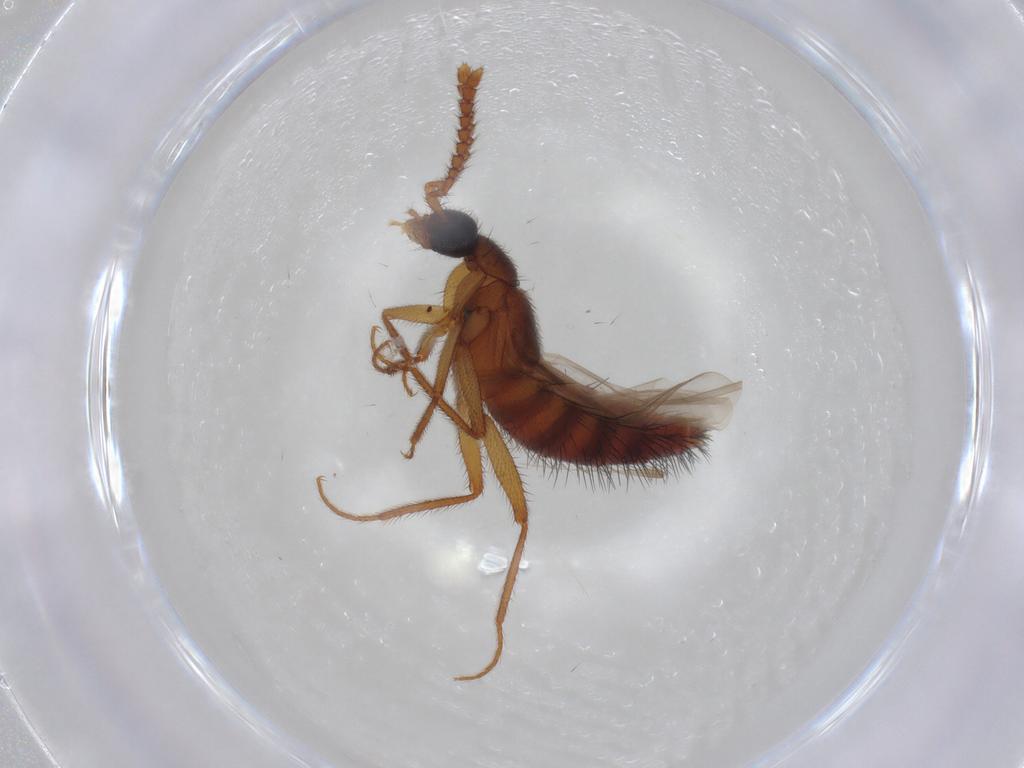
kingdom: Animalia
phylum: Arthropoda
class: Insecta
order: Coleoptera
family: Staphylinidae
